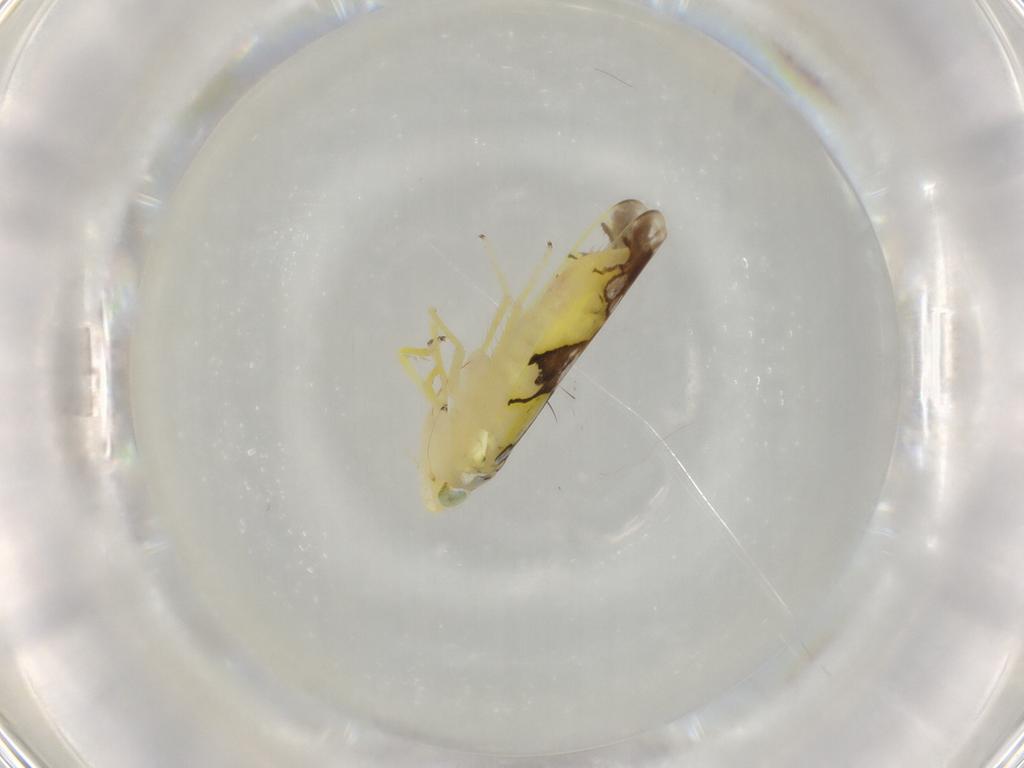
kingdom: Animalia
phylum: Arthropoda
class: Insecta
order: Hemiptera
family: Cicadellidae
